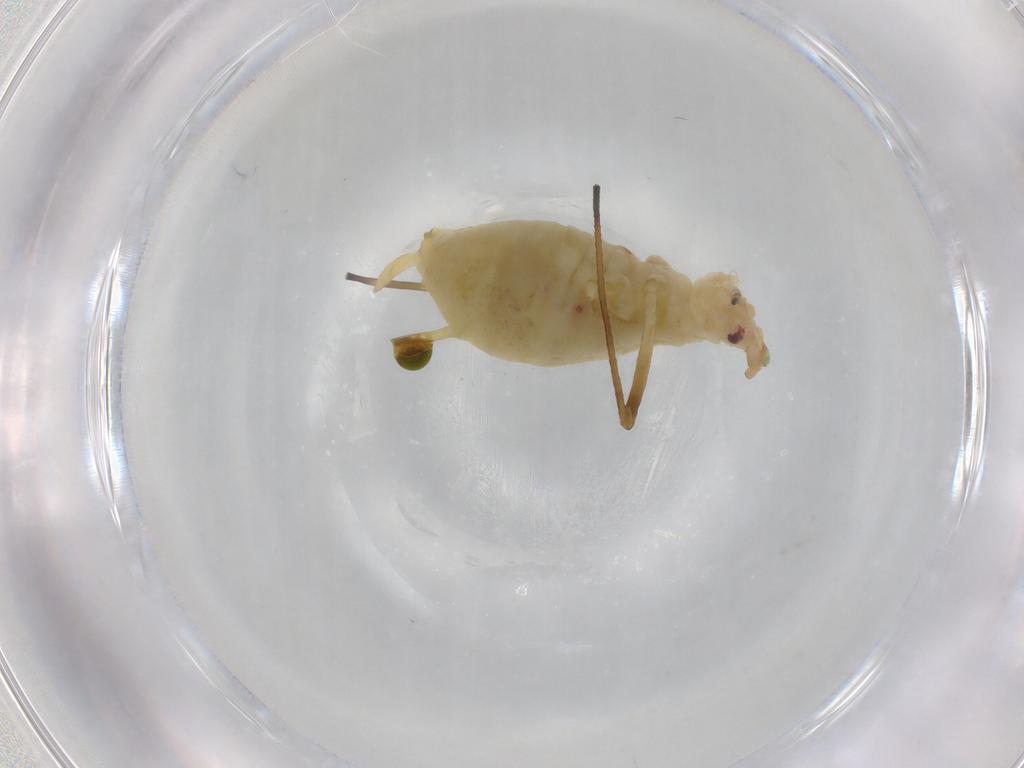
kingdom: Animalia
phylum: Arthropoda
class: Insecta
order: Hemiptera
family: Aphididae
